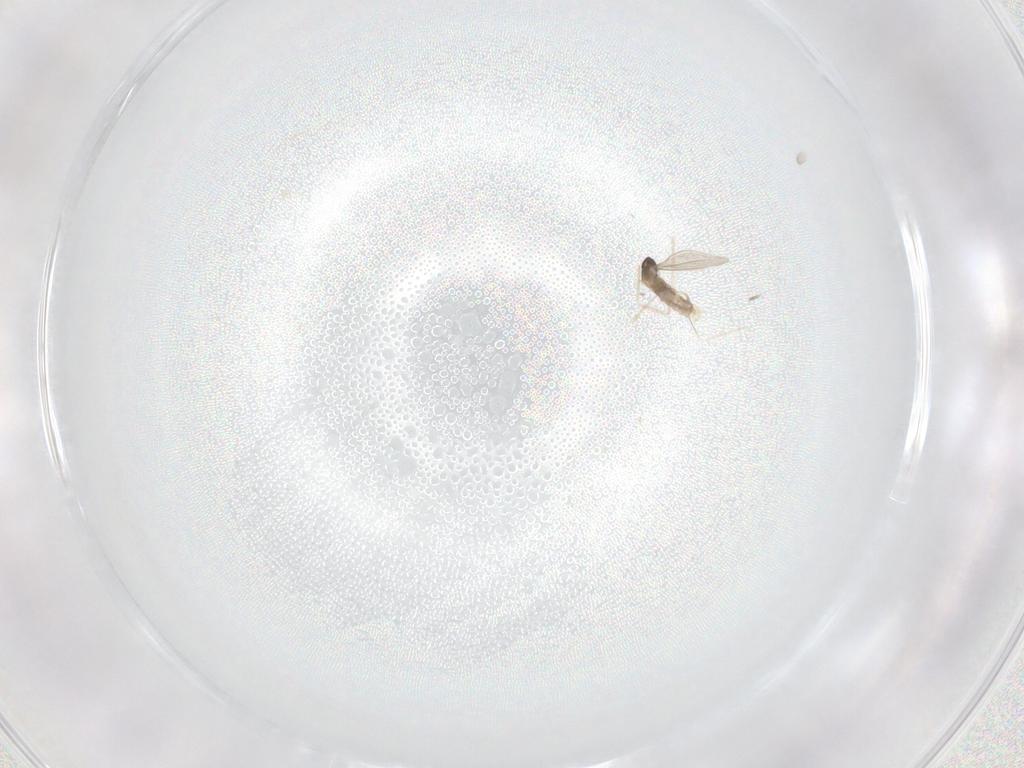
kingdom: Animalia
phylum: Arthropoda
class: Insecta
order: Diptera
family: Cecidomyiidae
